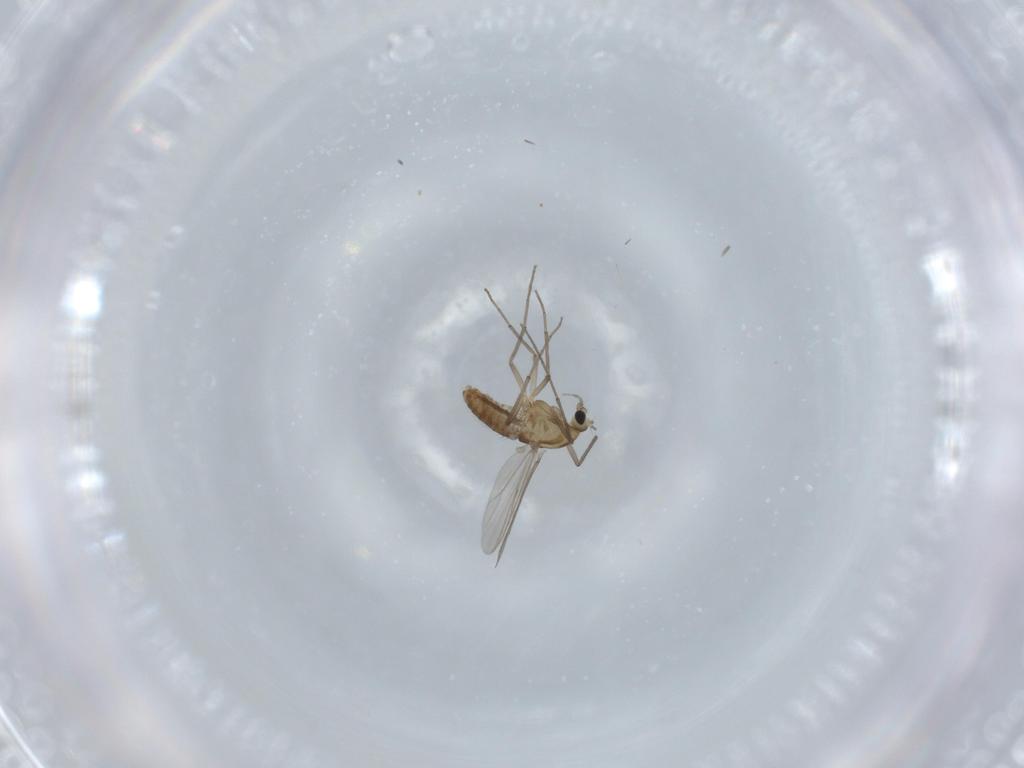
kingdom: Animalia
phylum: Arthropoda
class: Insecta
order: Diptera
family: Chironomidae
